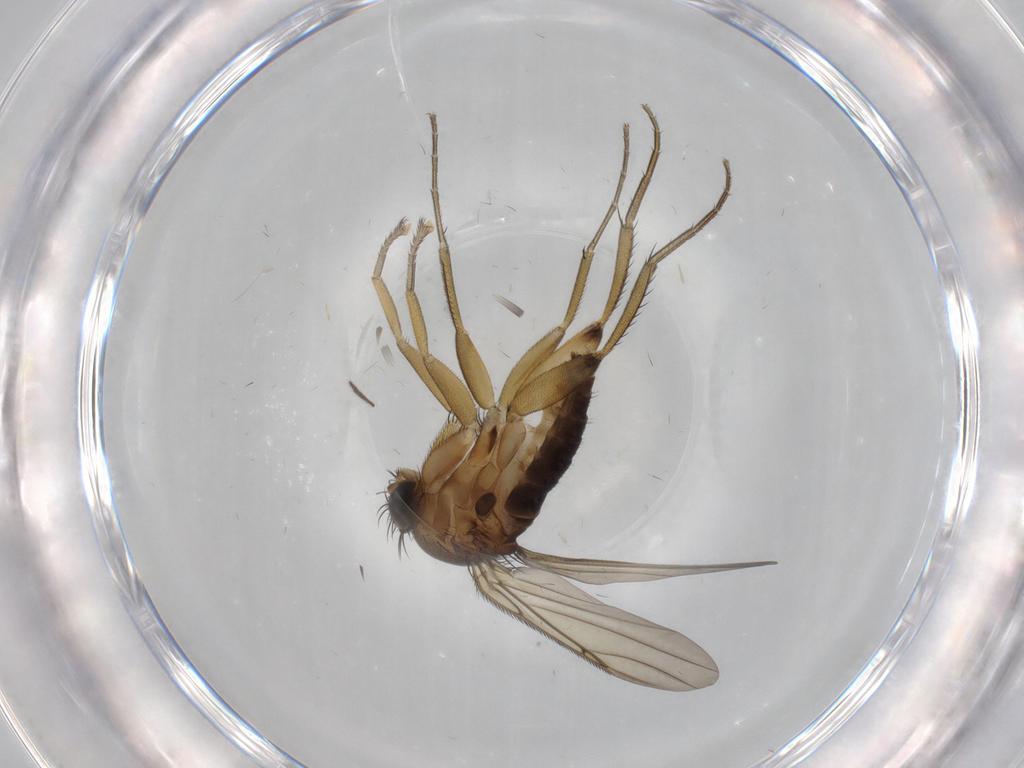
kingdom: Animalia
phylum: Arthropoda
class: Insecta
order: Diptera
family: Phoridae
